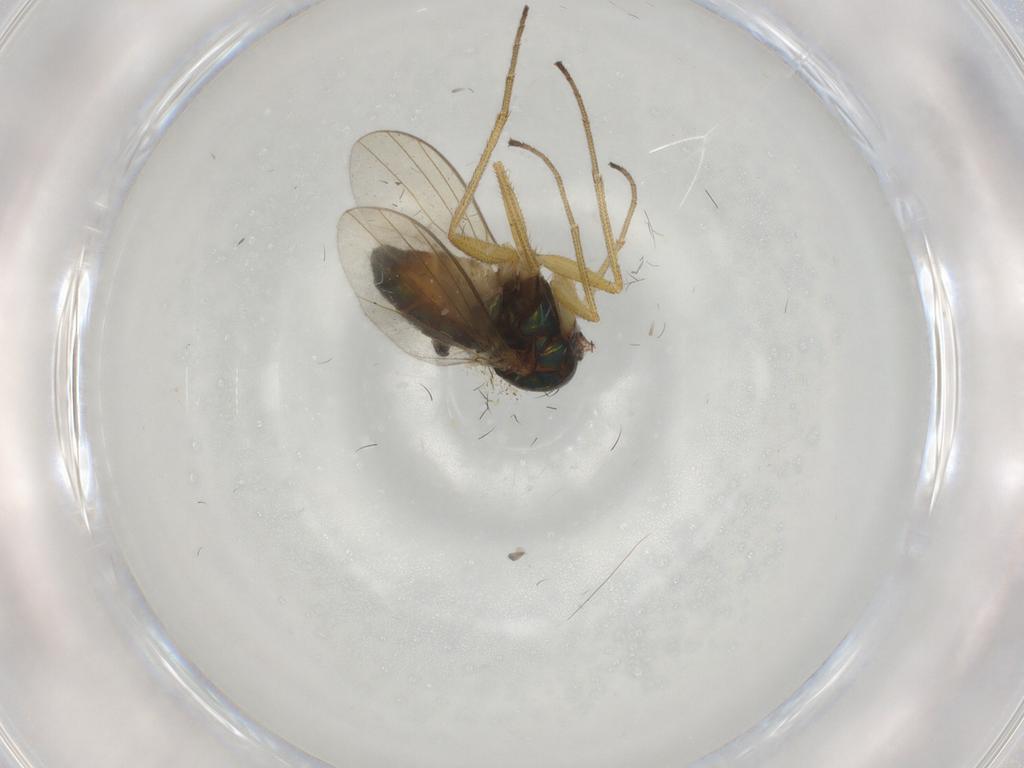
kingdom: Animalia
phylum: Arthropoda
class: Insecta
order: Diptera
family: Dolichopodidae
